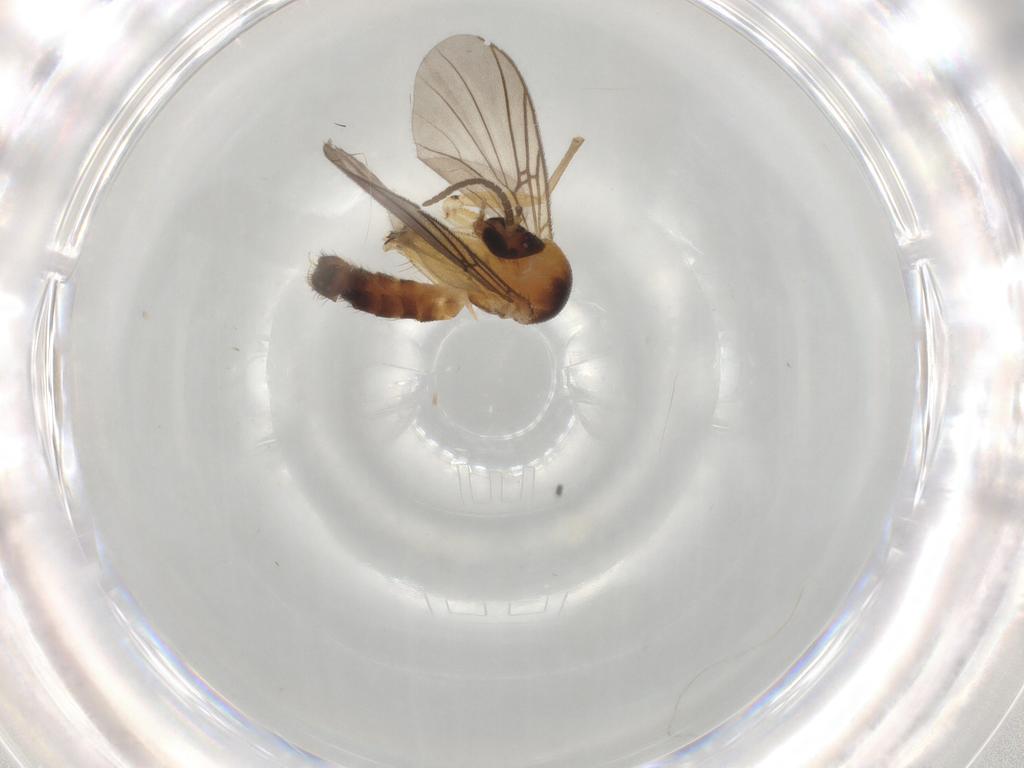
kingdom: Animalia
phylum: Arthropoda
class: Insecta
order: Diptera
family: Mycetophilidae
